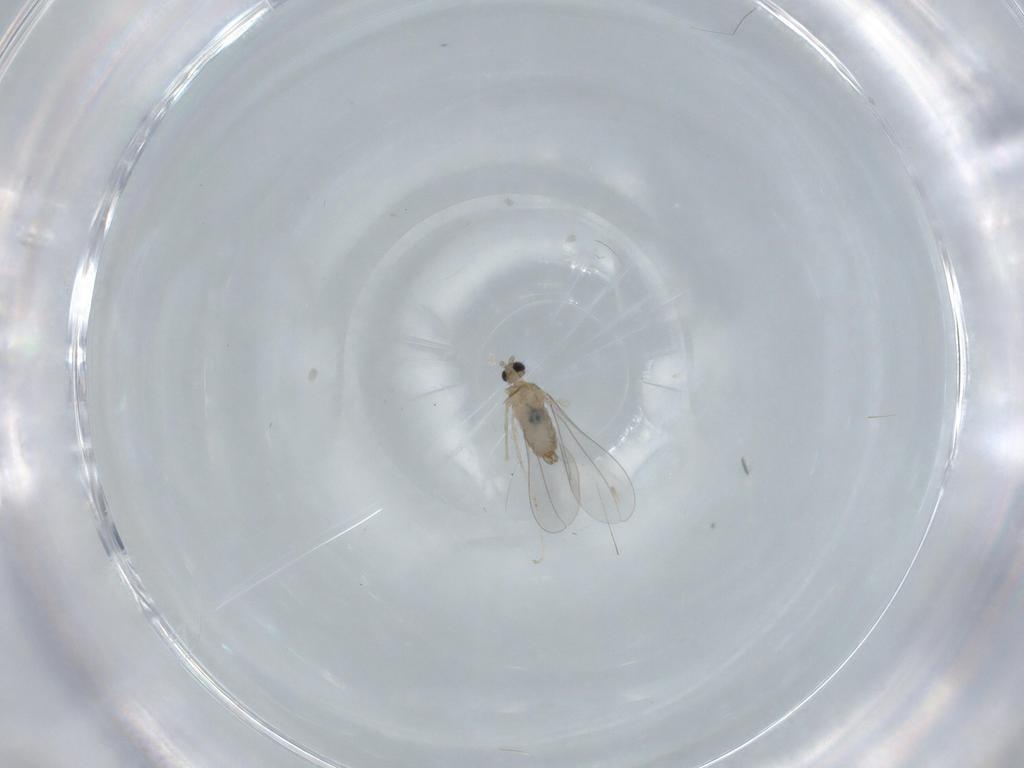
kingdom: Animalia
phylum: Arthropoda
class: Insecta
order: Diptera
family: Cecidomyiidae
